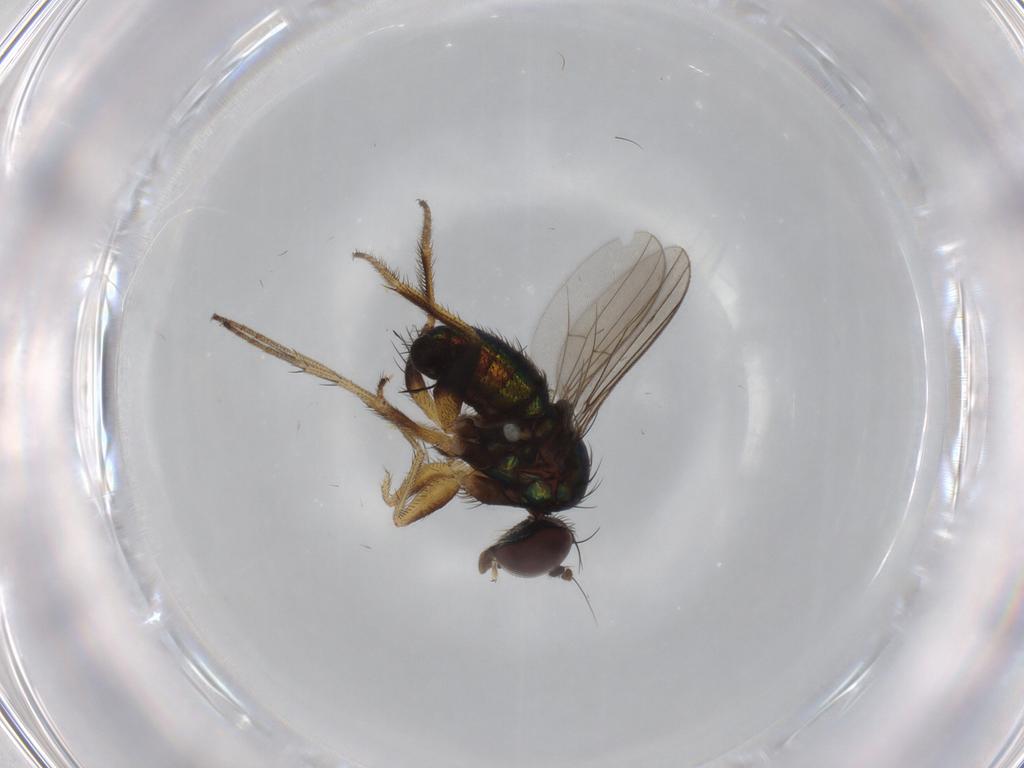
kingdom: Animalia
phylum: Arthropoda
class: Insecta
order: Diptera
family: Dolichopodidae
